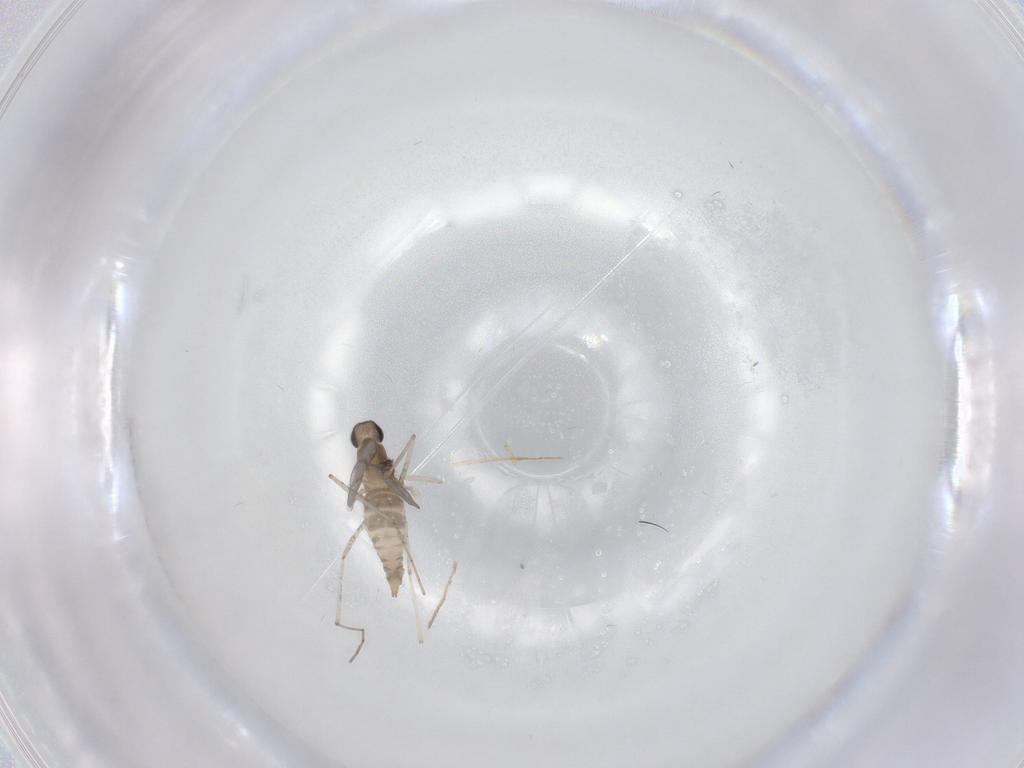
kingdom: Animalia
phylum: Arthropoda
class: Insecta
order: Diptera
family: Cecidomyiidae
